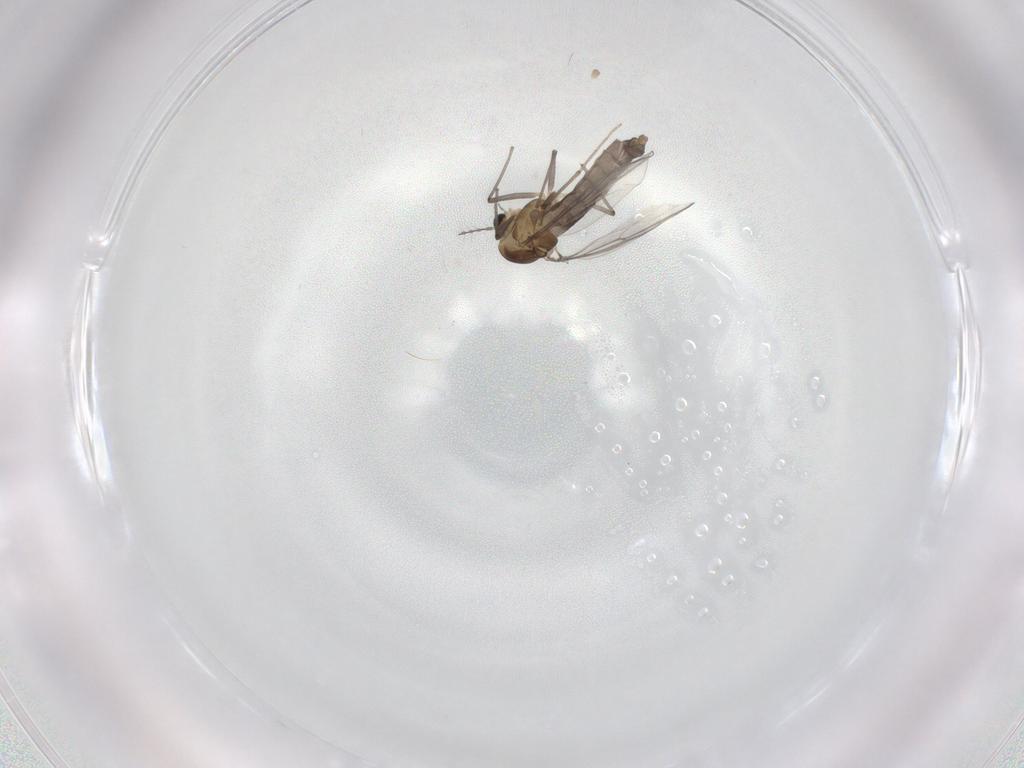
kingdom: Animalia
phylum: Arthropoda
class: Insecta
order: Diptera
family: Chironomidae
